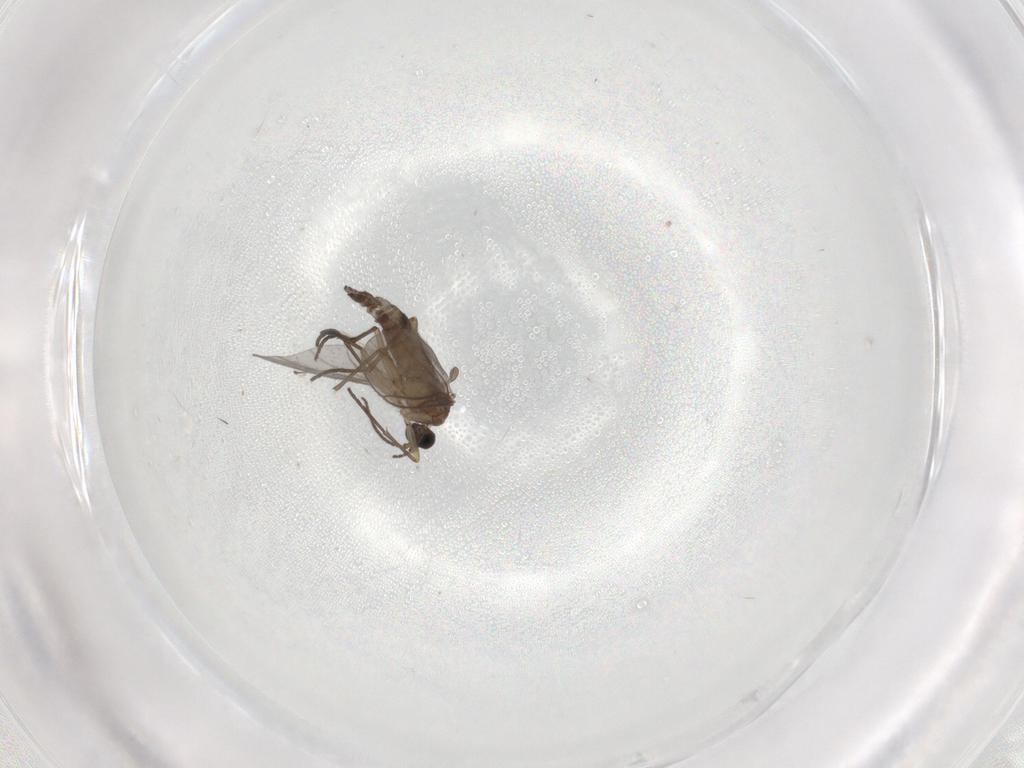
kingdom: Animalia
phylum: Arthropoda
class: Insecta
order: Diptera
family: Sciaridae
